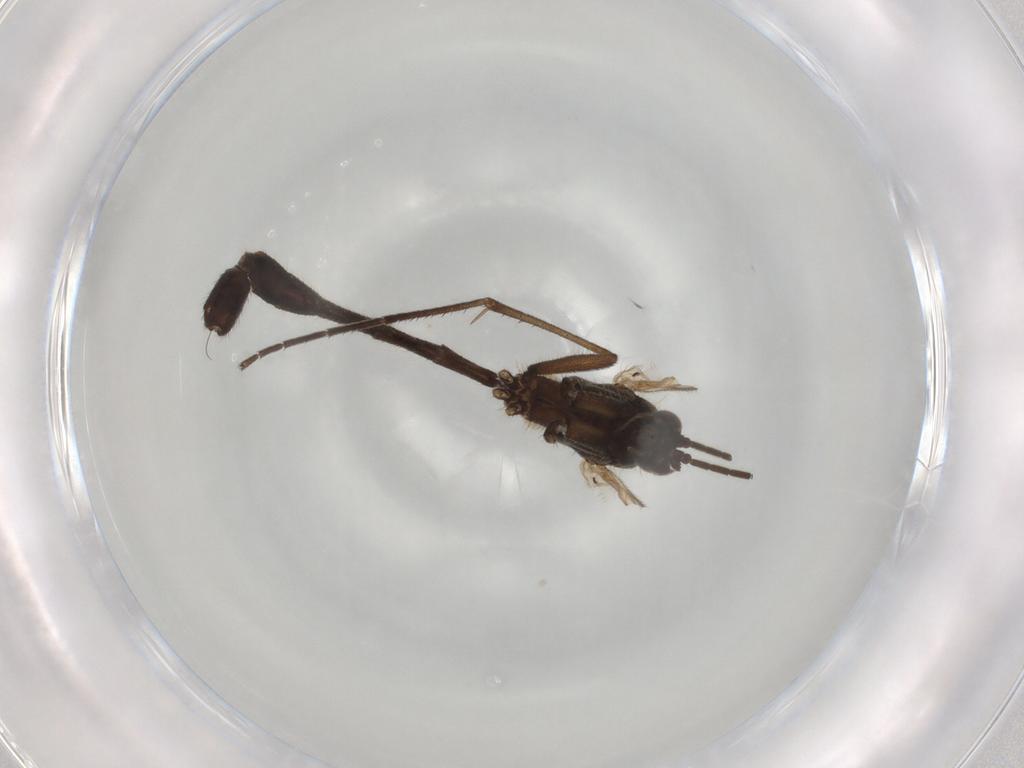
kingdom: Animalia
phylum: Arthropoda
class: Insecta
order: Diptera
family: Mycetophilidae
